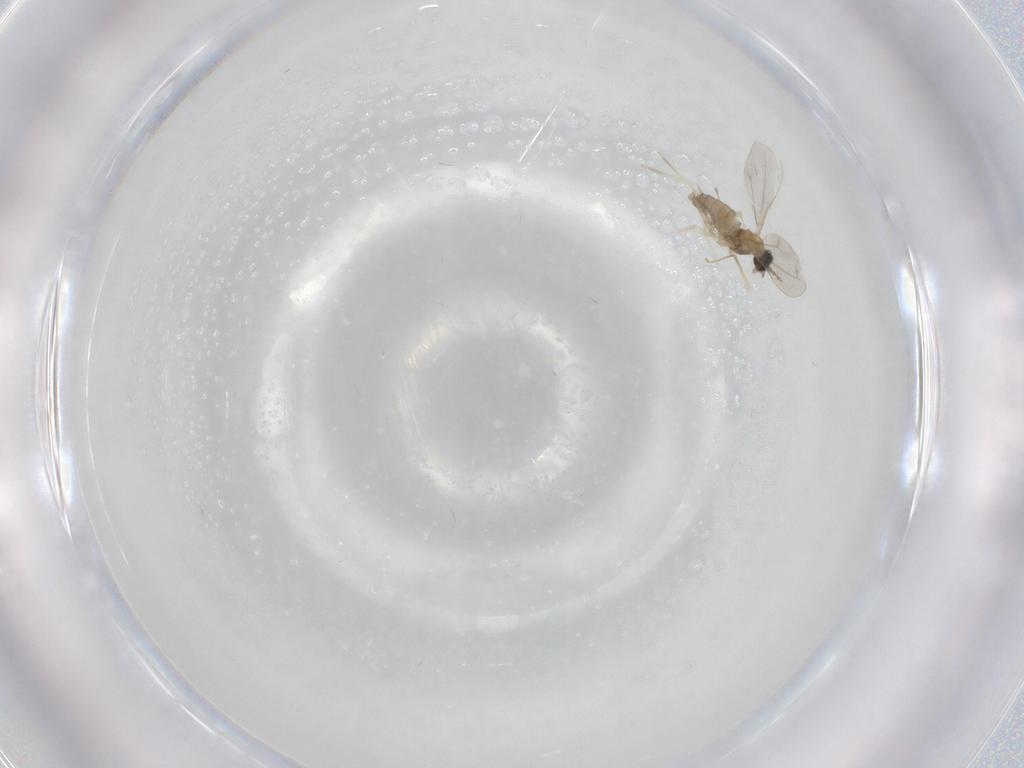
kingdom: Animalia
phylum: Arthropoda
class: Insecta
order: Diptera
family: Cecidomyiidae
